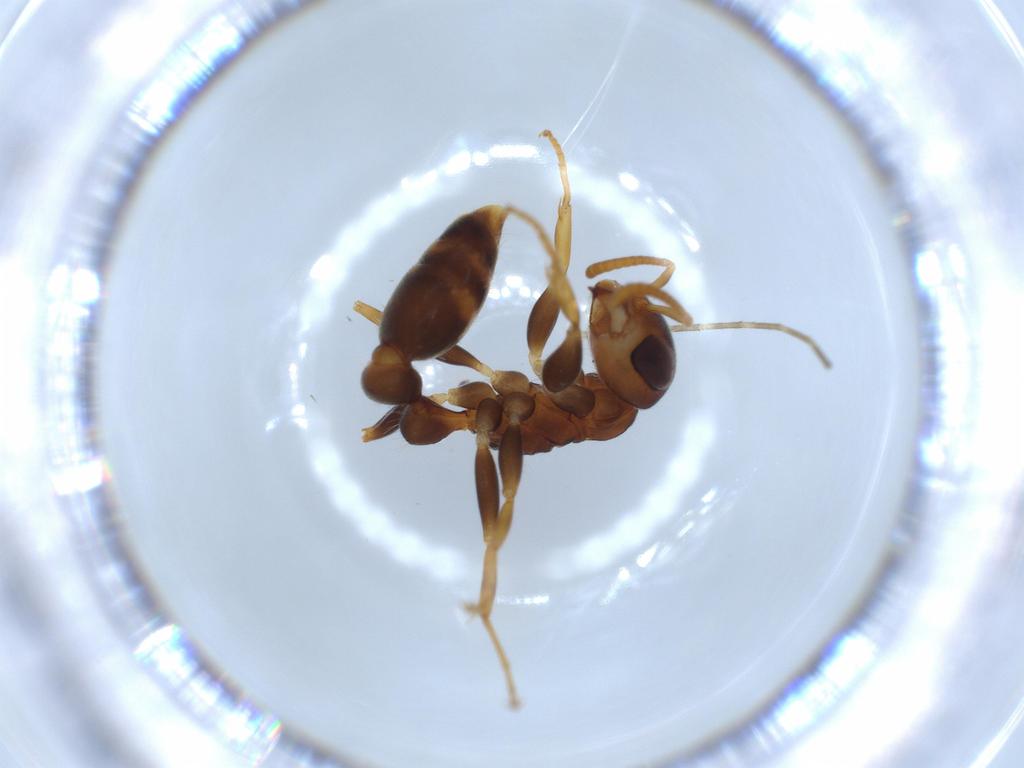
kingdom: Animalia
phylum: Arthropoda
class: Insecta
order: Hymenoptera
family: Formicidae
